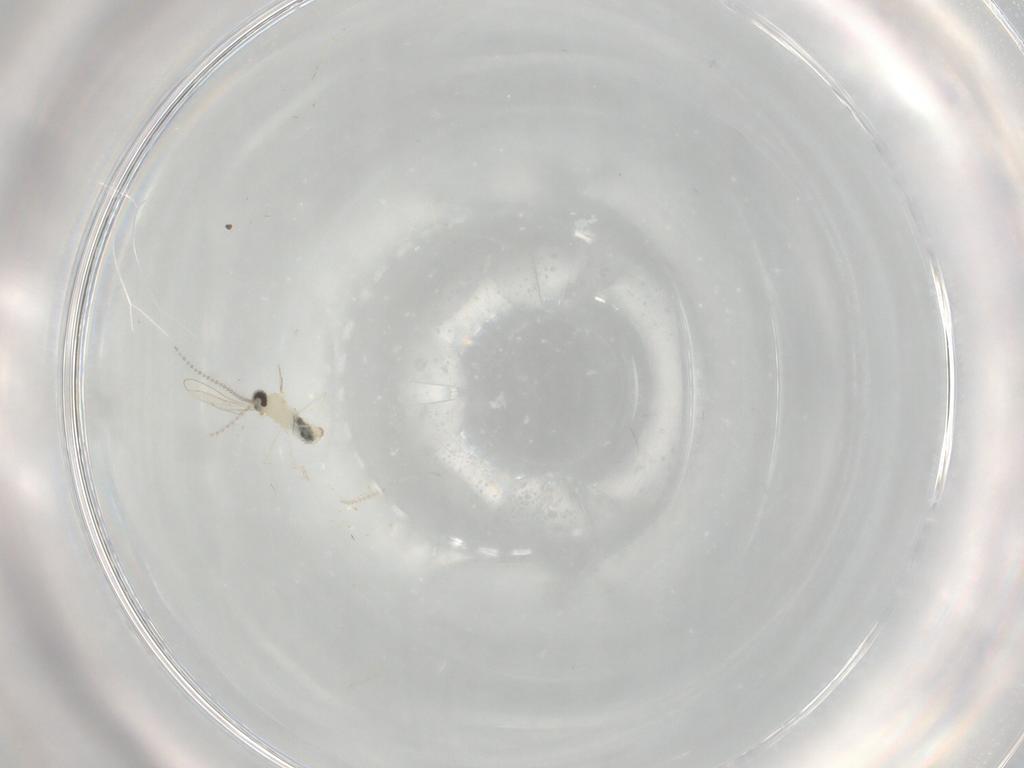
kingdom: Animalia
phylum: Arthropoda
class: Insecta
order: Diptera
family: Cecidomyiidae
